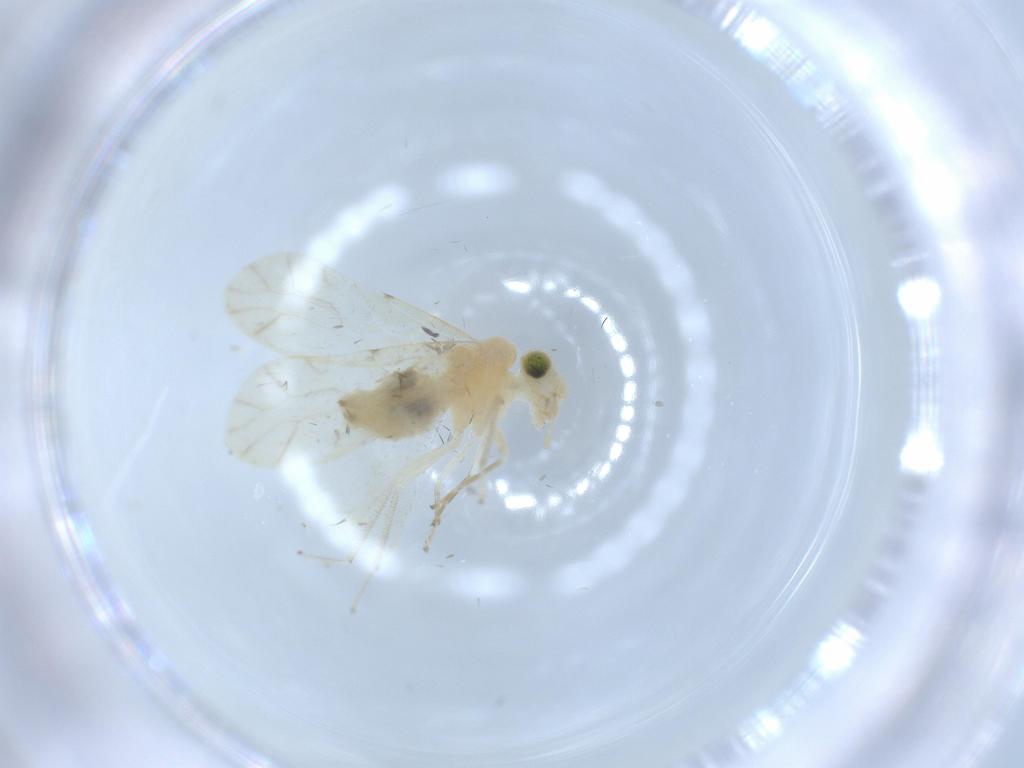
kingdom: Animalia
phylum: Arthropoda
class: Insecta
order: Psocodea
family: Caeciliusidae
